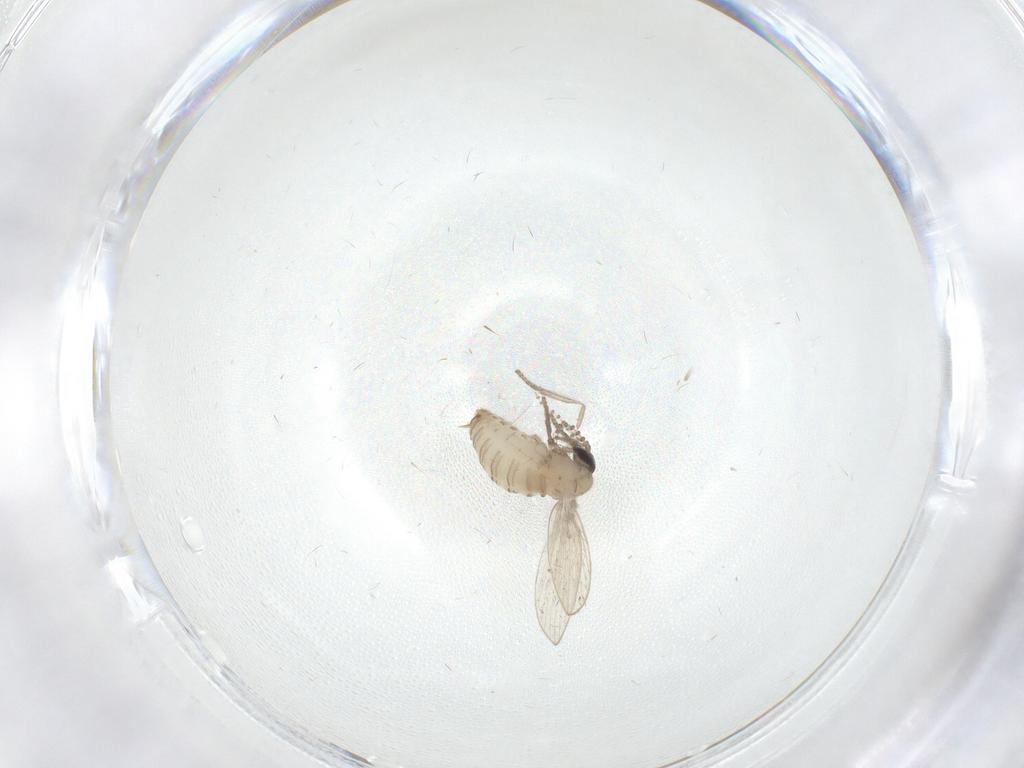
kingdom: Animalia
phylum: Arthropoda
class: Insecta
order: Diptera
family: Psychodidae
